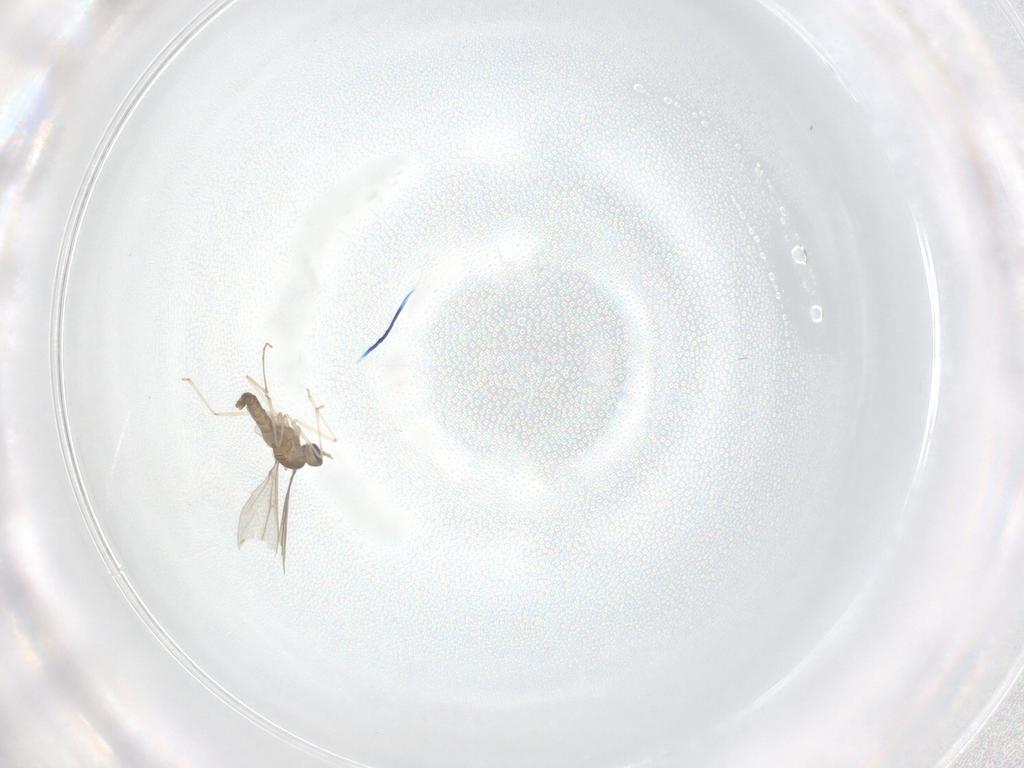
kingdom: Animalia
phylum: Arthropoda
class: Insecta
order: Diptera
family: Cecidomyiidae
